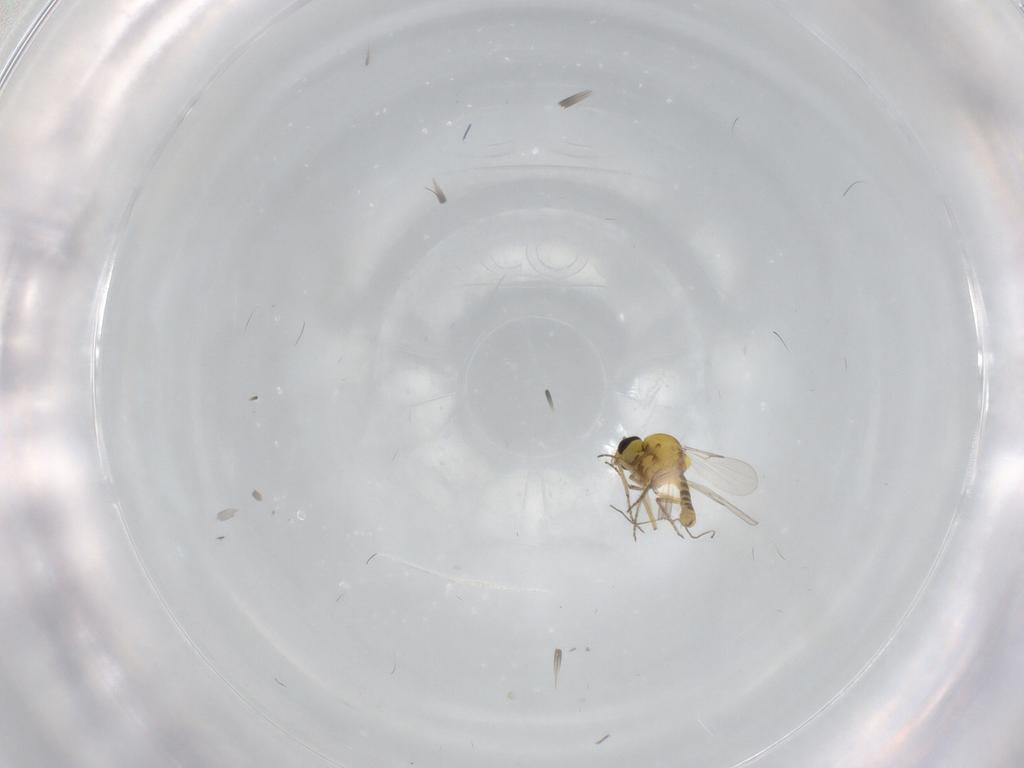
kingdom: Animalia
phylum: Arthropoda
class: Insecta
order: Diptera
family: Ceratopogonidae
